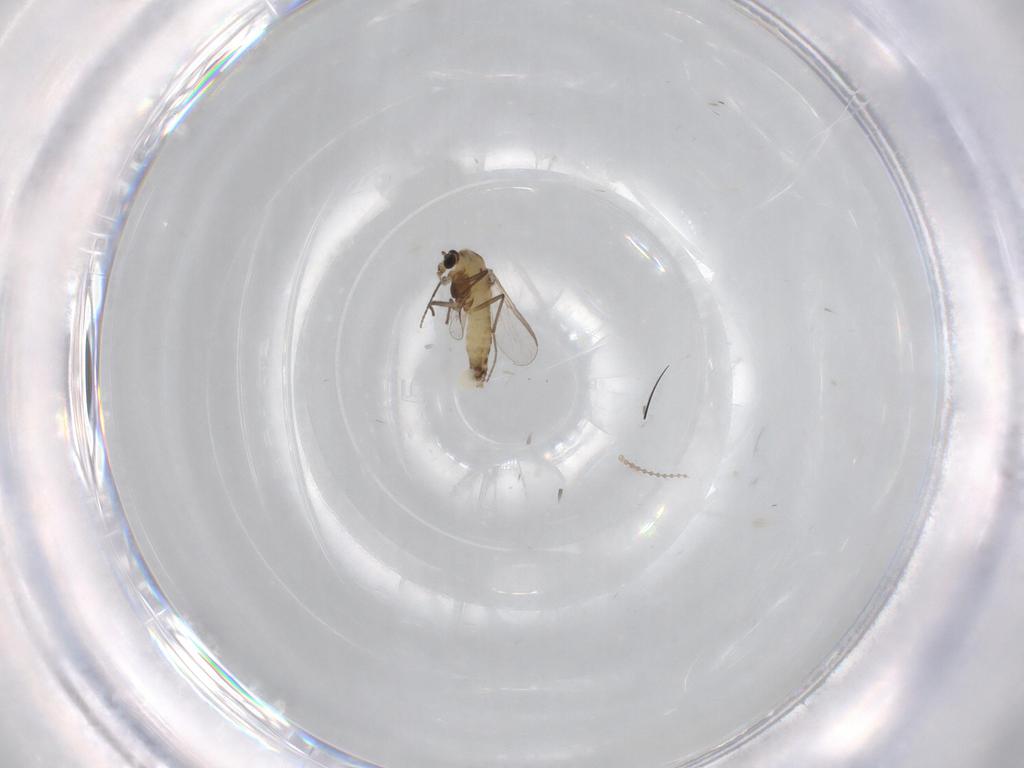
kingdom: Animalia
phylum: Arthropoda
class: Insecta
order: Diptera
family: Chironomidae
